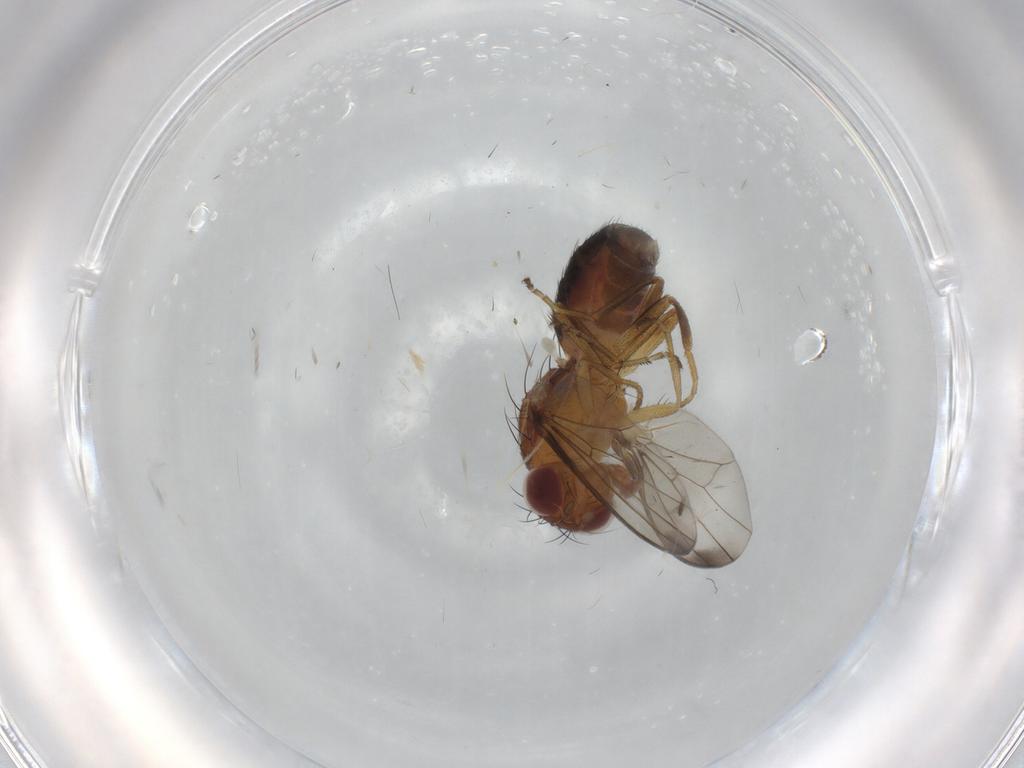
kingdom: Animalia
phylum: Arthropoda
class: Insecta
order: Diptera
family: Piophilidae
